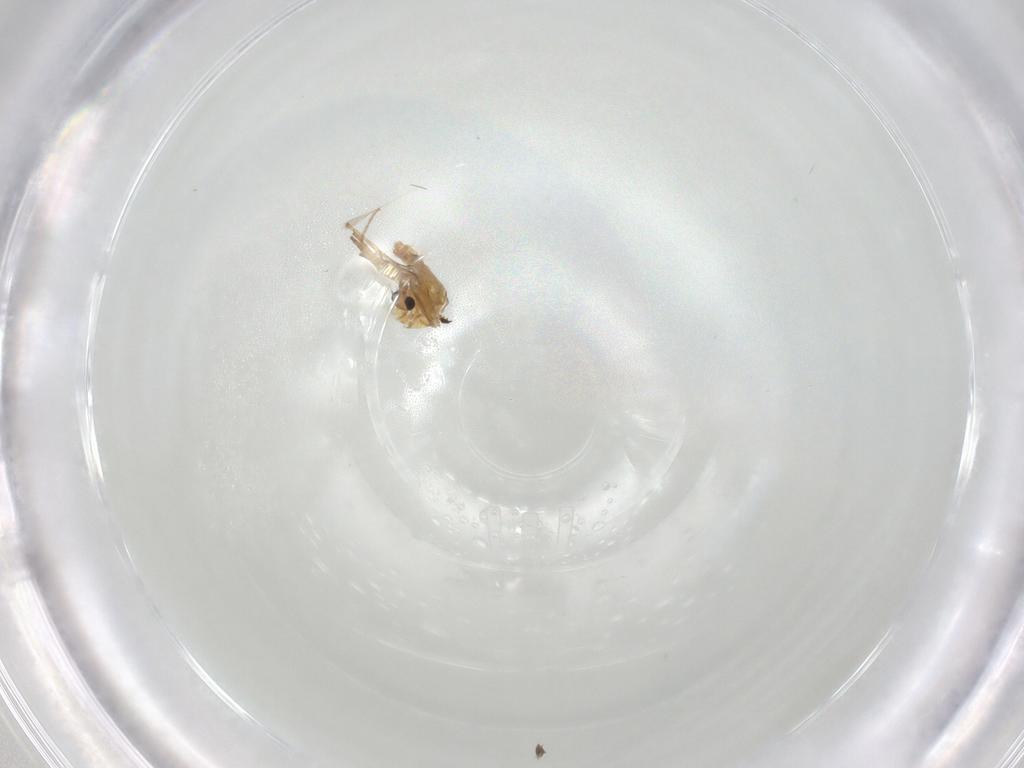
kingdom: Animalia
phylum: Arthropoda
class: Insecta
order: Diptera
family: Chironomidae
